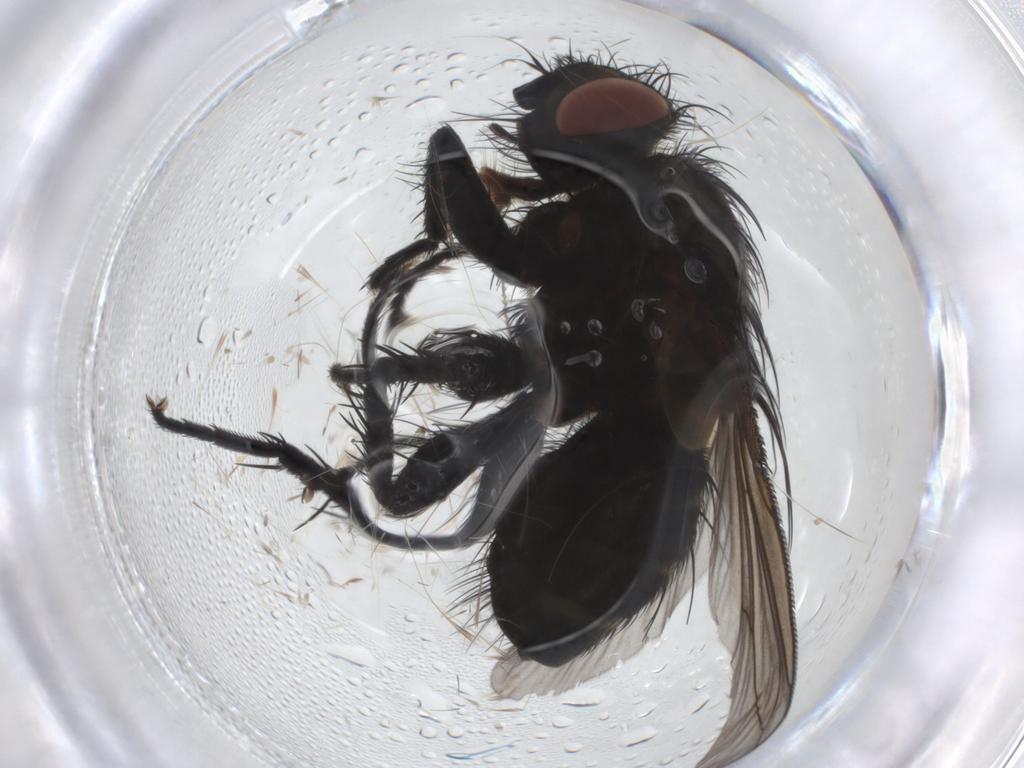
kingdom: Animalia
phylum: Arthropoda
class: Insecta
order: Diptera
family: Tachinidae
